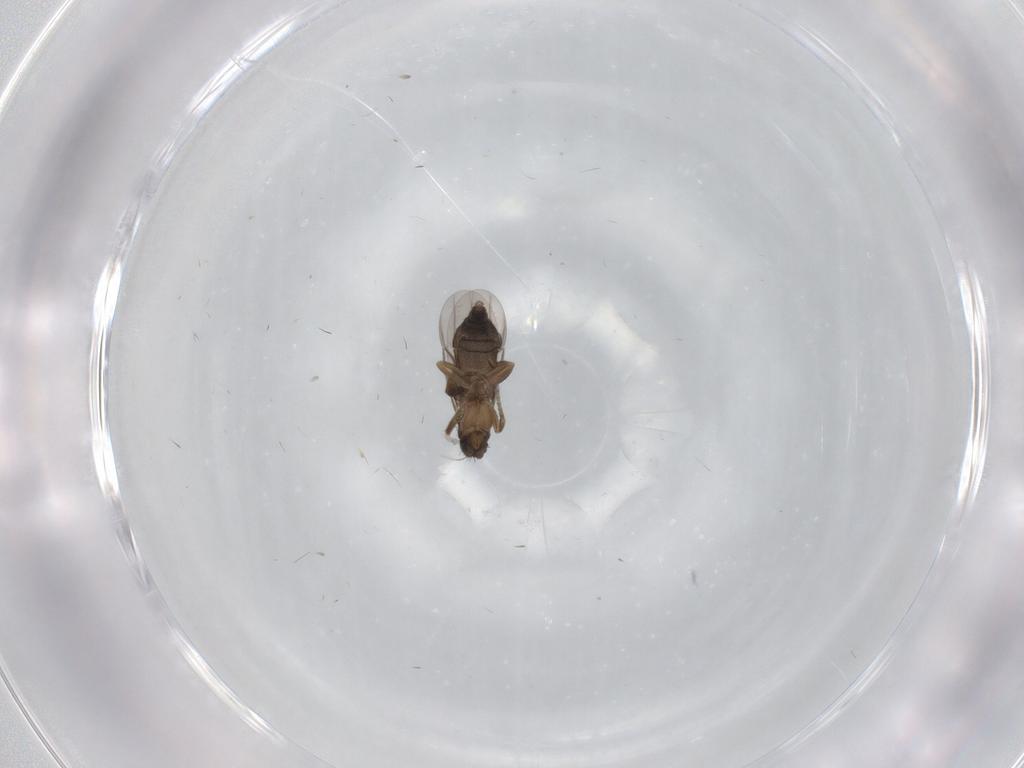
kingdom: Animalia
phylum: Arthropoda
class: Insecta
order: Diptera
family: Phoridae
